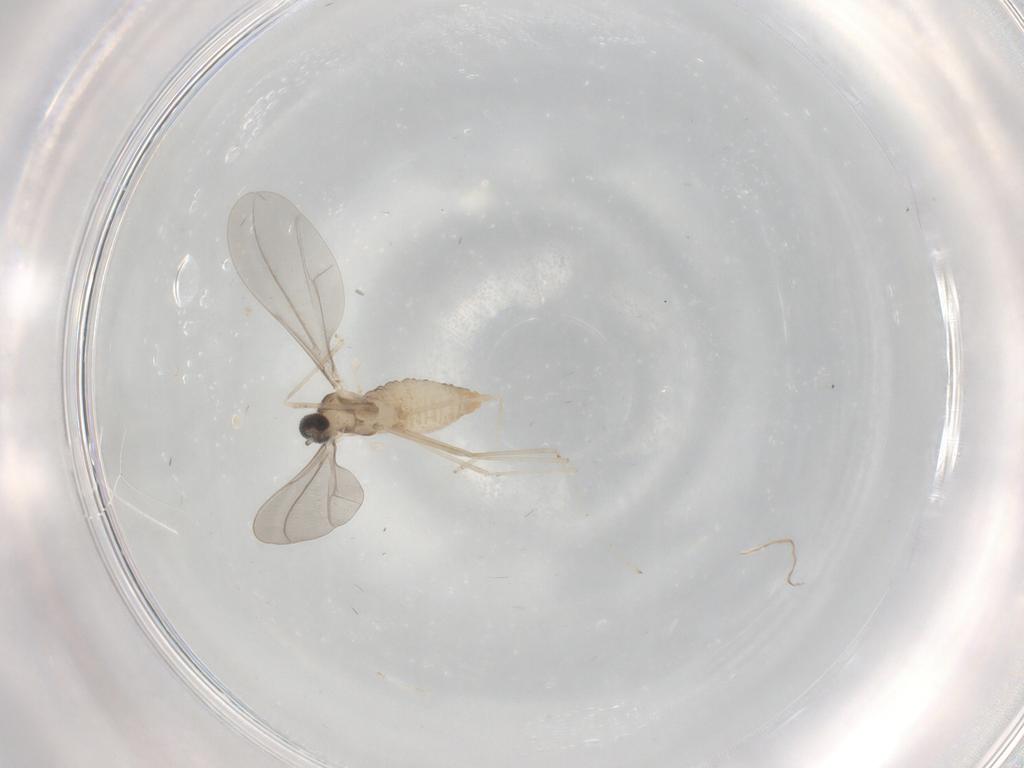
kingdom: Animalia
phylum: Arthropoda
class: Insecta
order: Diptera
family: Cecidomyiidae
